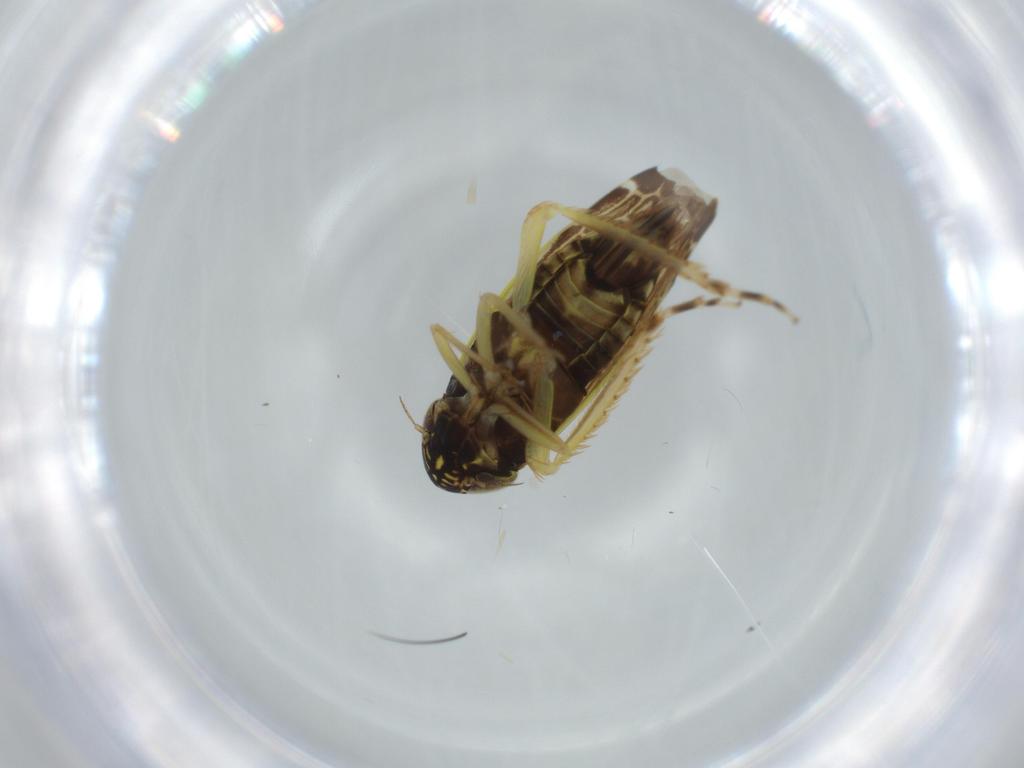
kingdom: Animalia
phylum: Arthropoda
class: Insecta
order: Hemiptera
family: Cicadellidae
